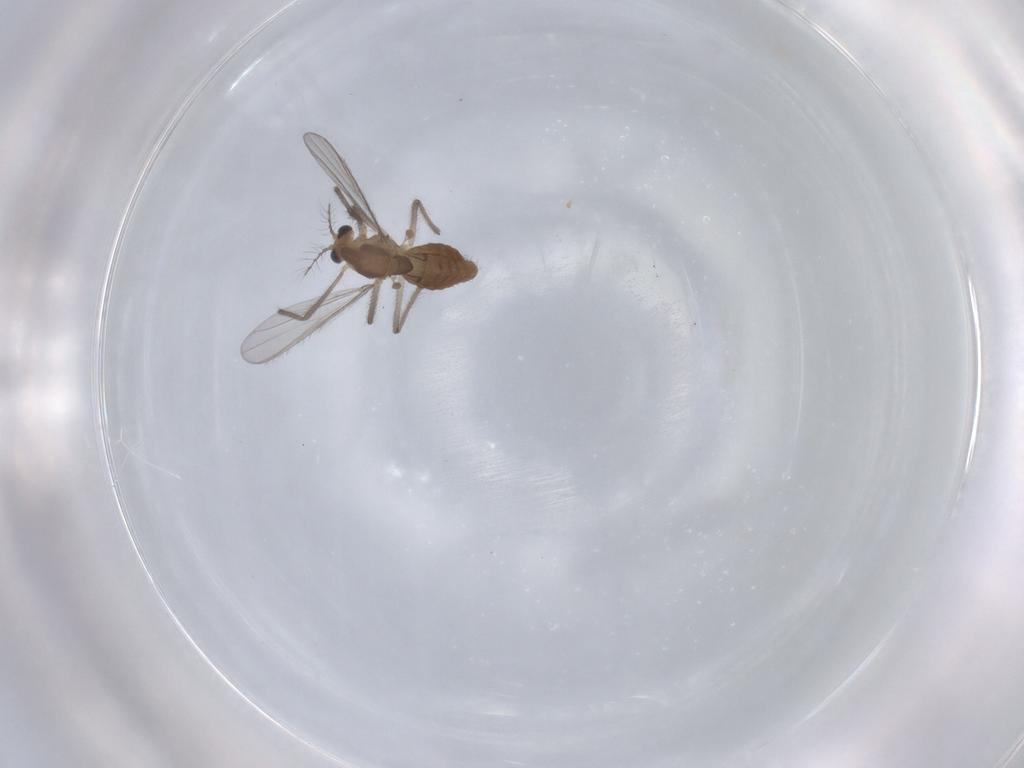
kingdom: Animalia
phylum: Arthropoda
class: Insecta
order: Diptera
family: Chironomidae
